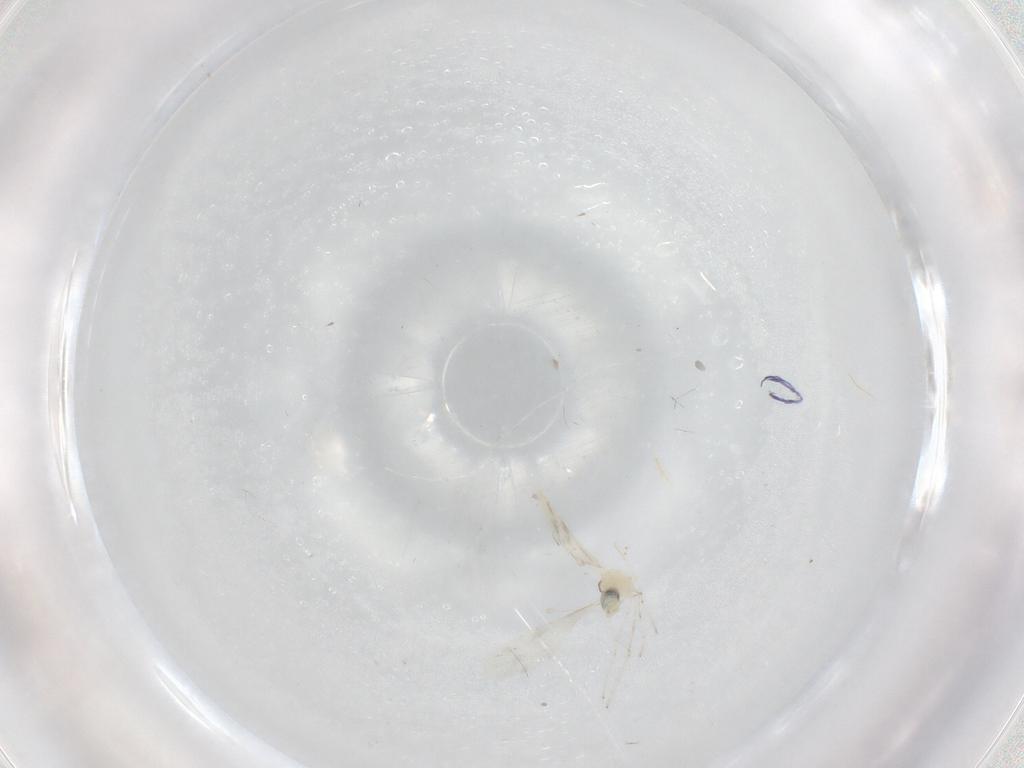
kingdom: Animalia
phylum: Arthropoda
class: Insecta
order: Diptera
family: Cecidomyiidae
